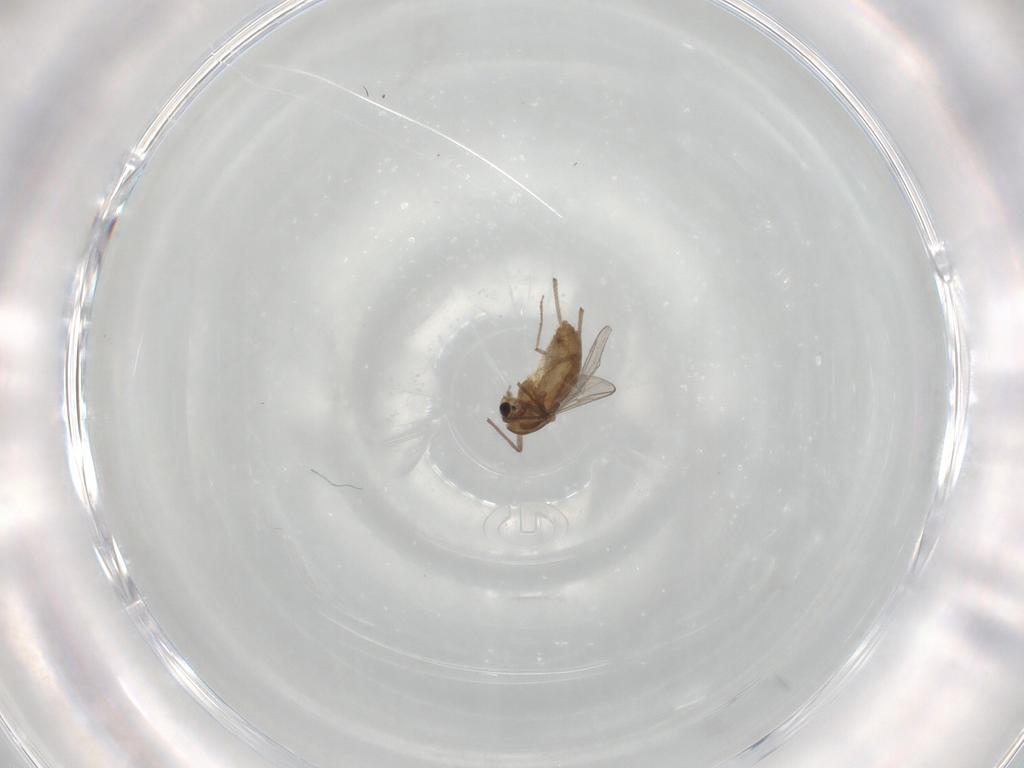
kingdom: Animalia
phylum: Arthropoda
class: Insecta
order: Diptera
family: Chironomidae
